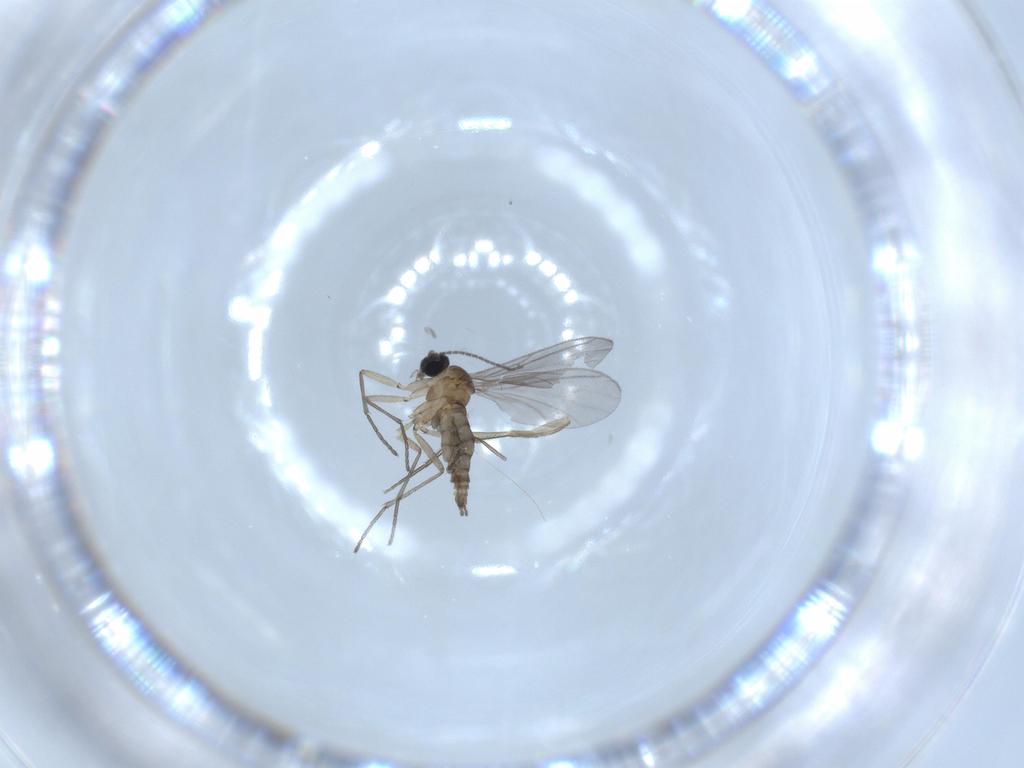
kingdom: Animalia
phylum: Arthropoda
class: Insecta
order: Diptera
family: Phoridae
